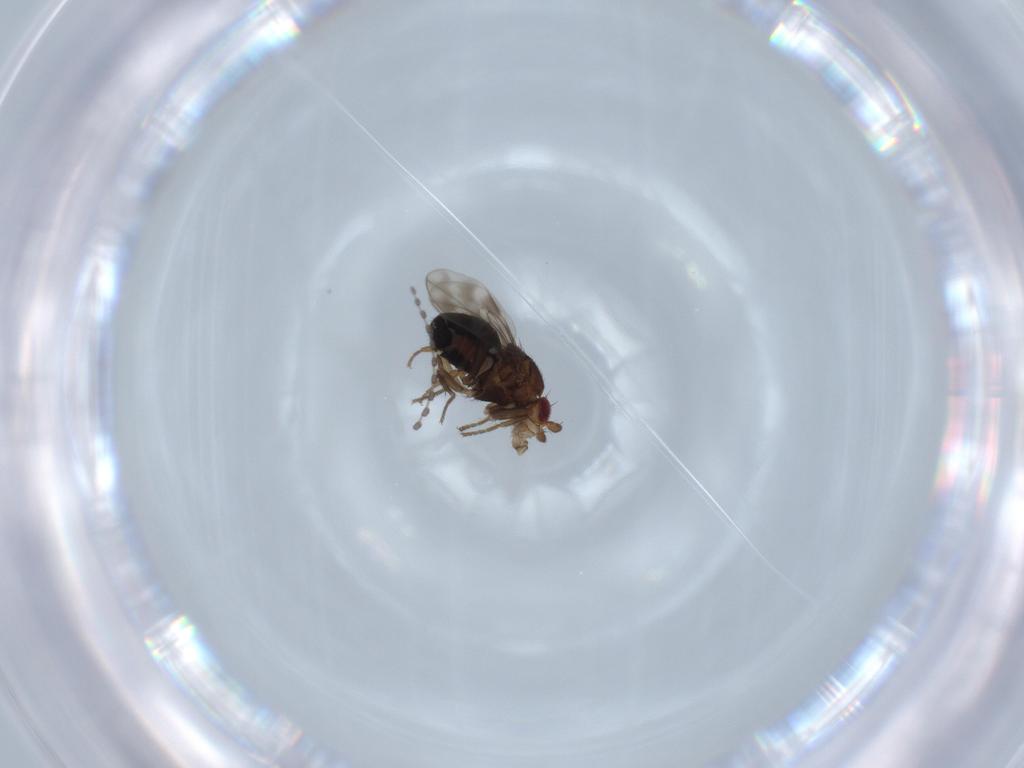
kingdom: Animalia
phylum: Arthropoda
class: Insecta
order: Diptera
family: Sphaeroceridae
